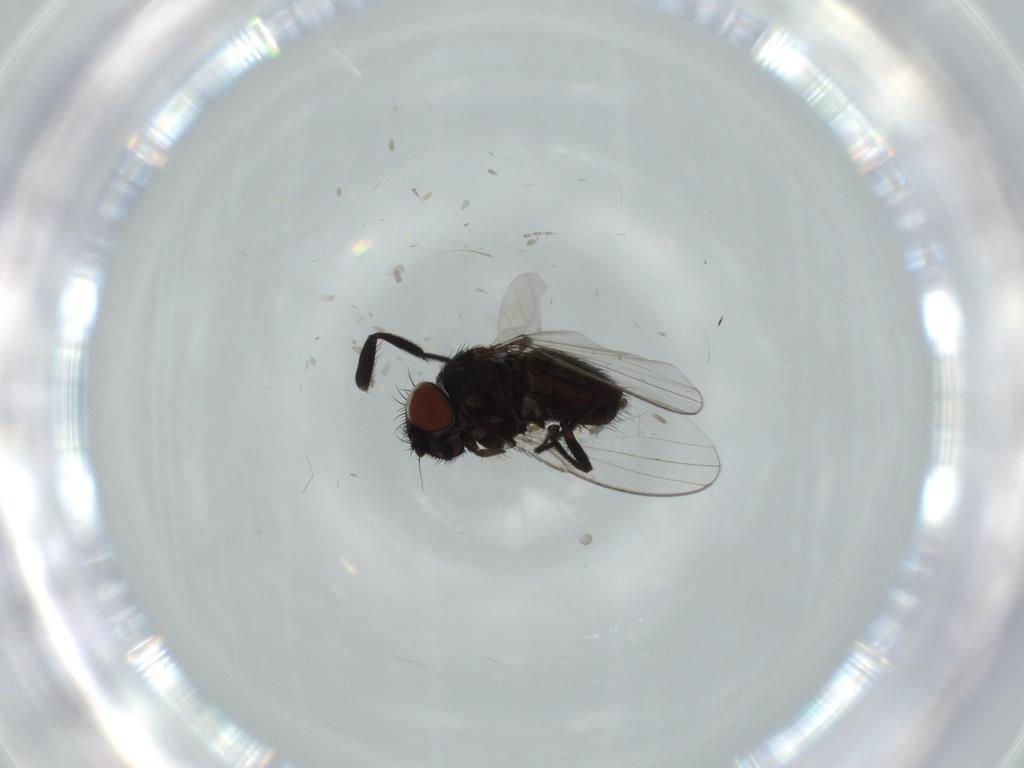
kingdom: Animalia
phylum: Arthropoda
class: Insecta
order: Diptera
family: Milichiidae
